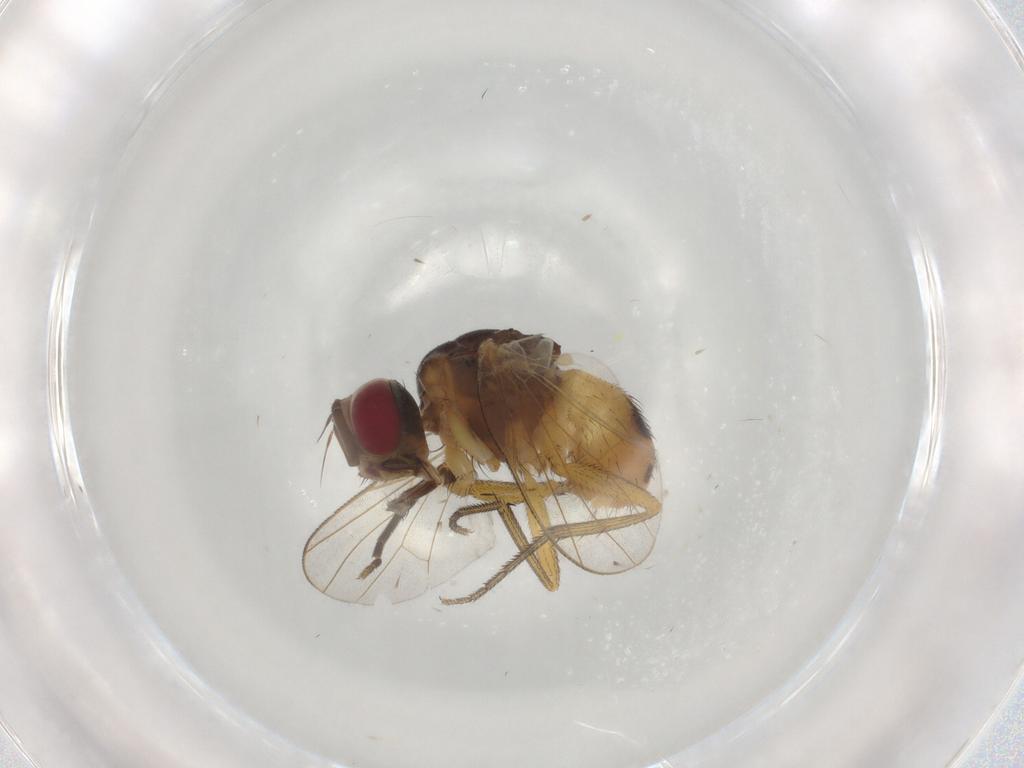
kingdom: Animalia
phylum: Arthropoda
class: Insecta
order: Diptera
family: Muscidae
